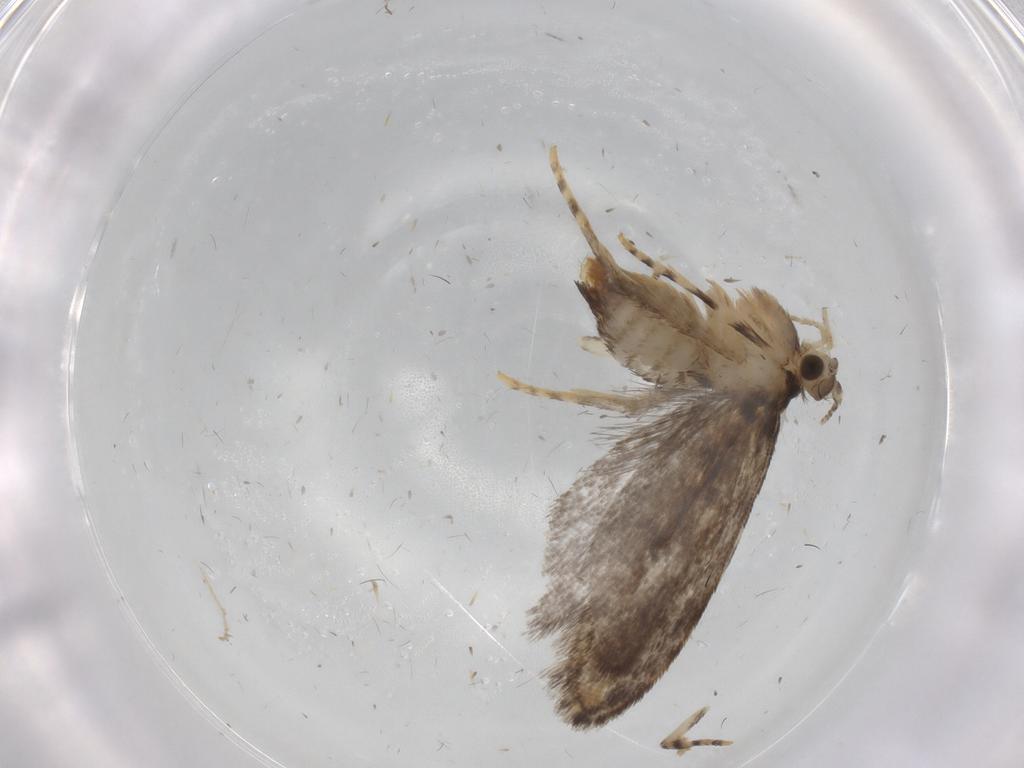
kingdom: Animalia
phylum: Arthropoda
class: Insecta
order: Lepidoptera
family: Tineidae
